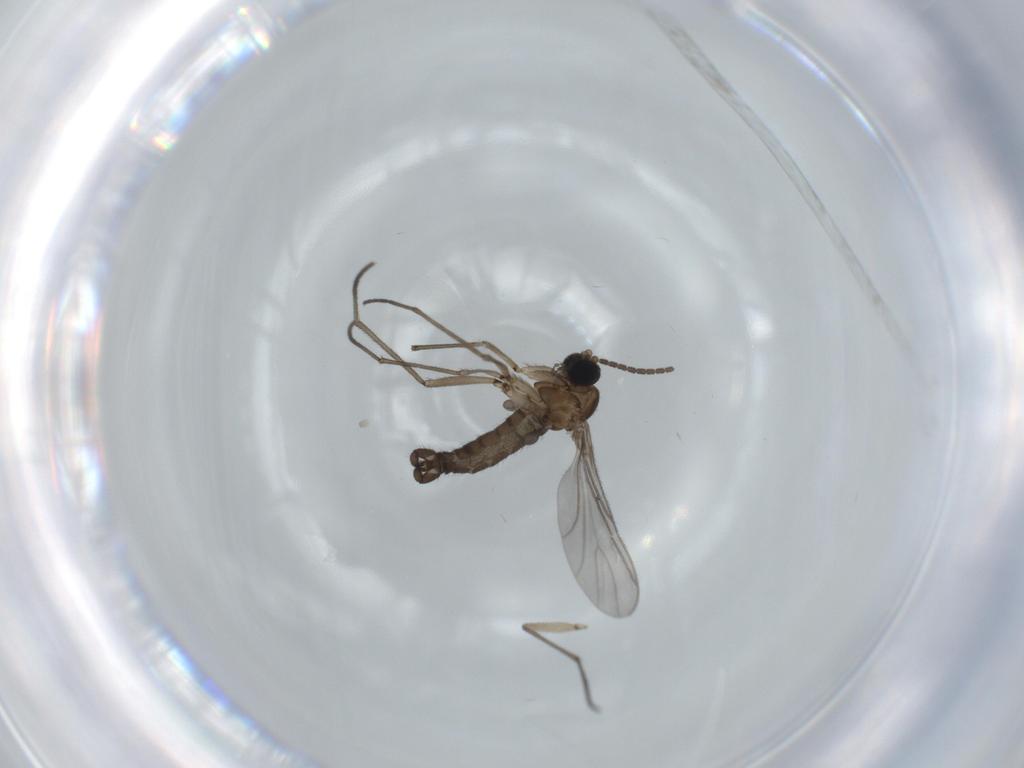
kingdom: Animalia
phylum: Arthropoda
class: Insecta
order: Diptera
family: Sciaridae
